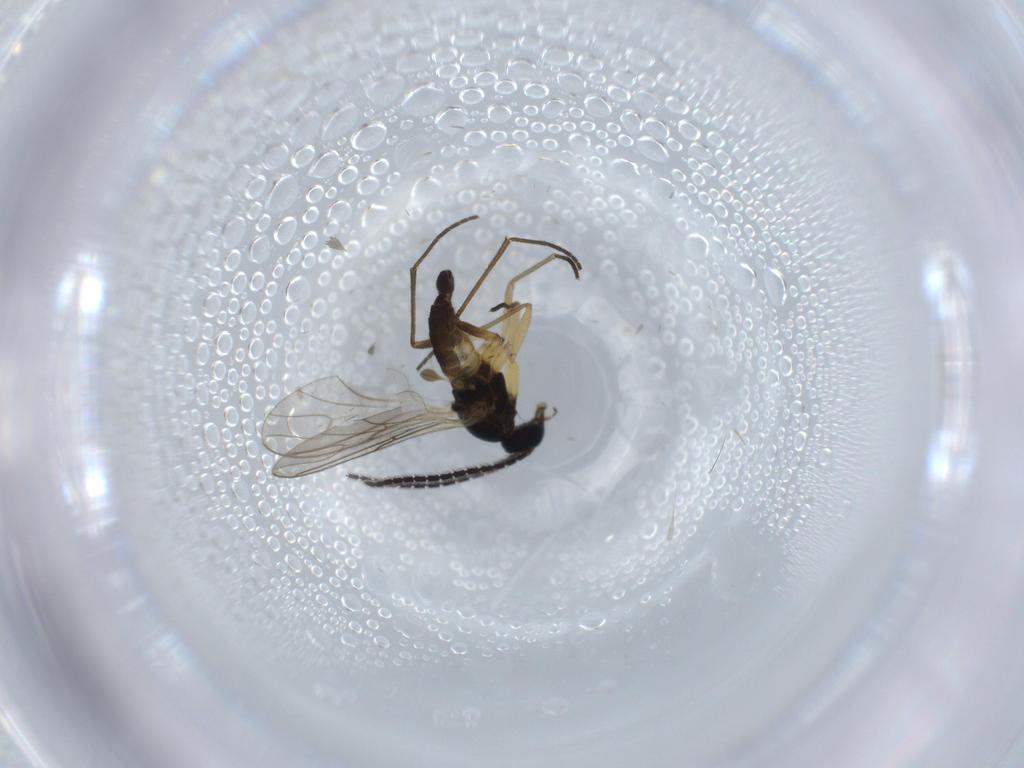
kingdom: Animalia
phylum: Arthropoda
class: Insecta
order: Diptera
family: Sciaridae
